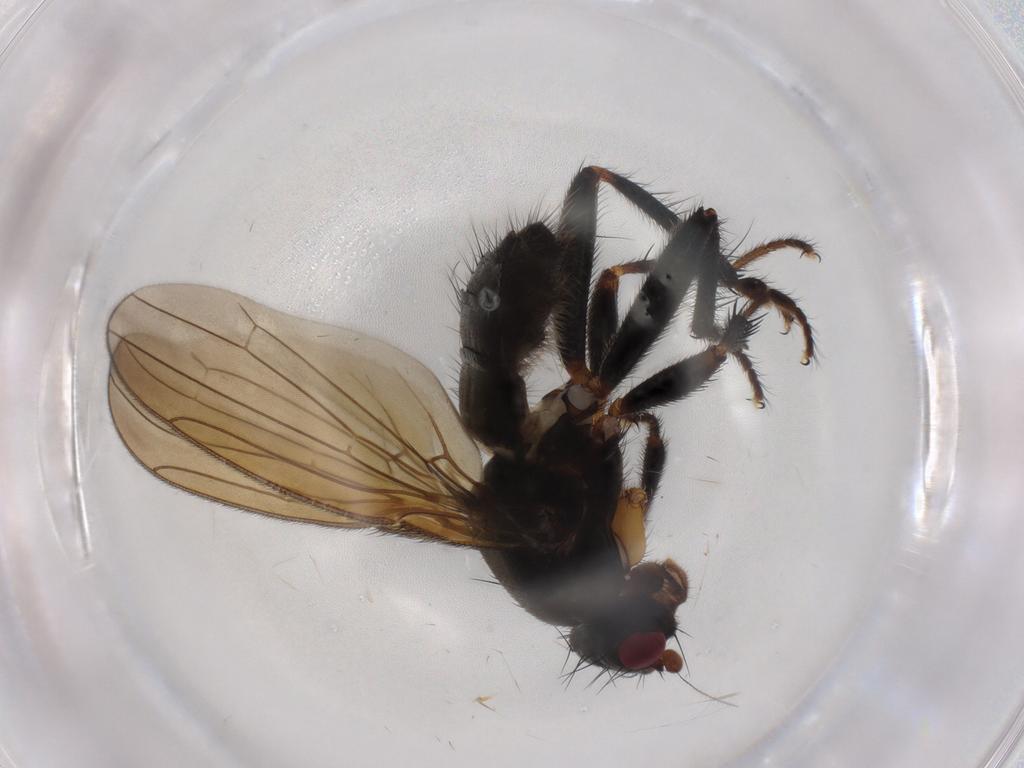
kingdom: Animalia
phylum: Arthropoda
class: Insecta
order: Diptera
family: Sphaeroceridae
